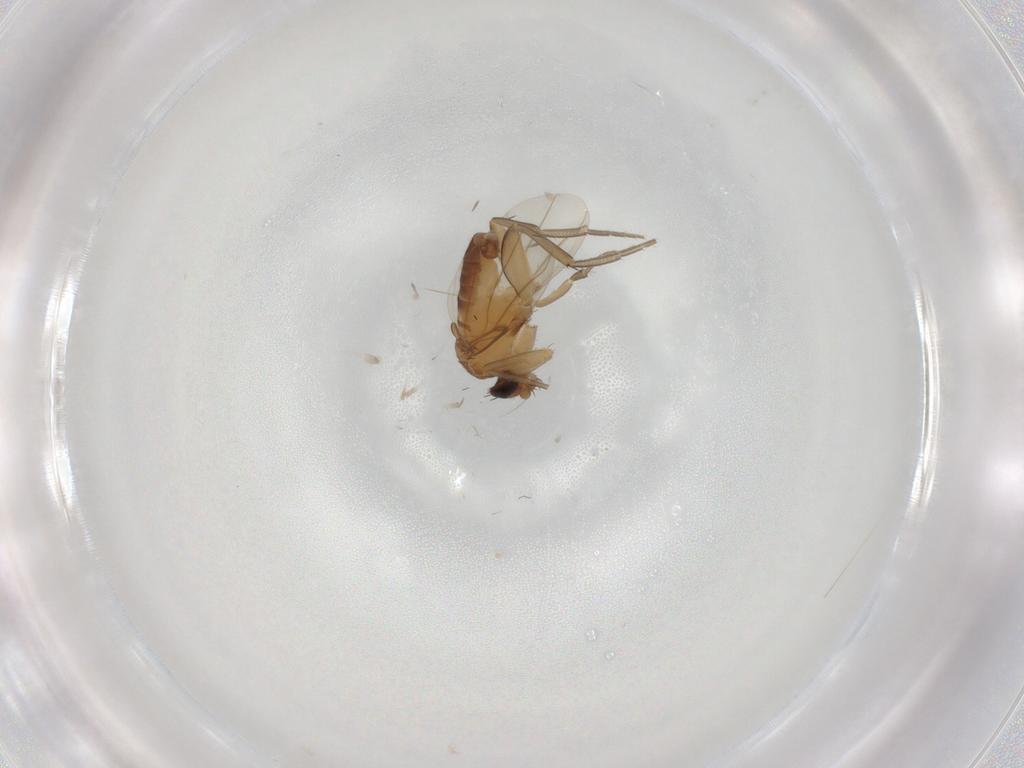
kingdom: Animalia
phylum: Arthropoda
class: Insecta
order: Diptera
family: Phoridae
